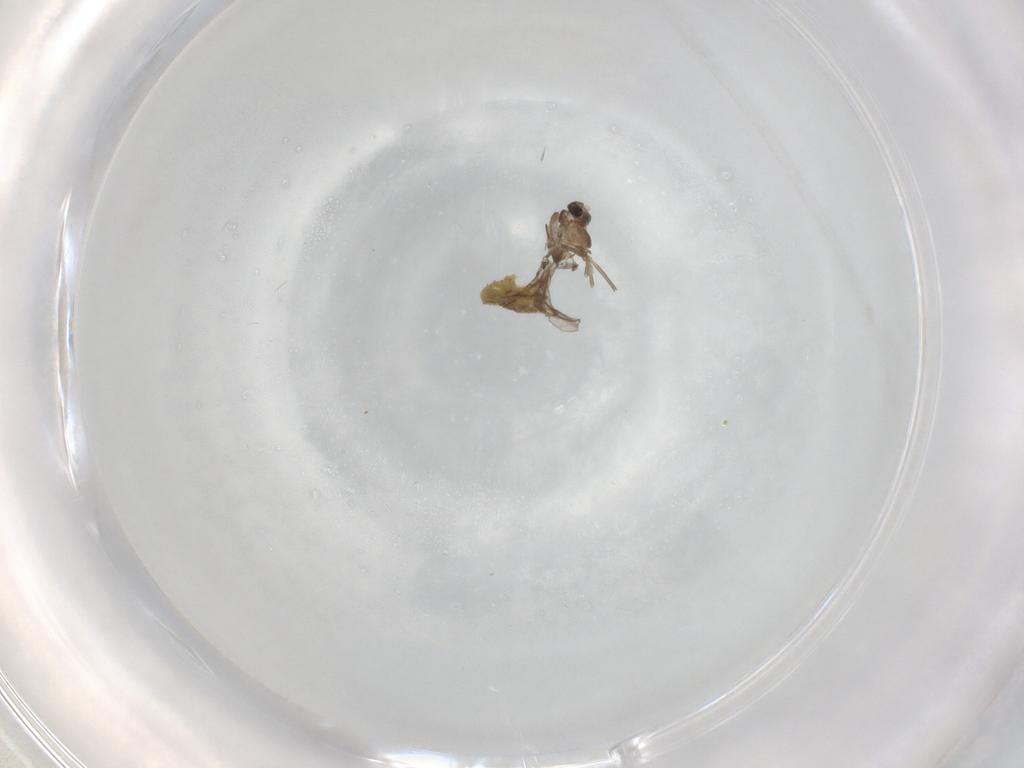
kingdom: Animalia
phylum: Arthropoda
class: Insecta
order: Diptera
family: Chironomidae
